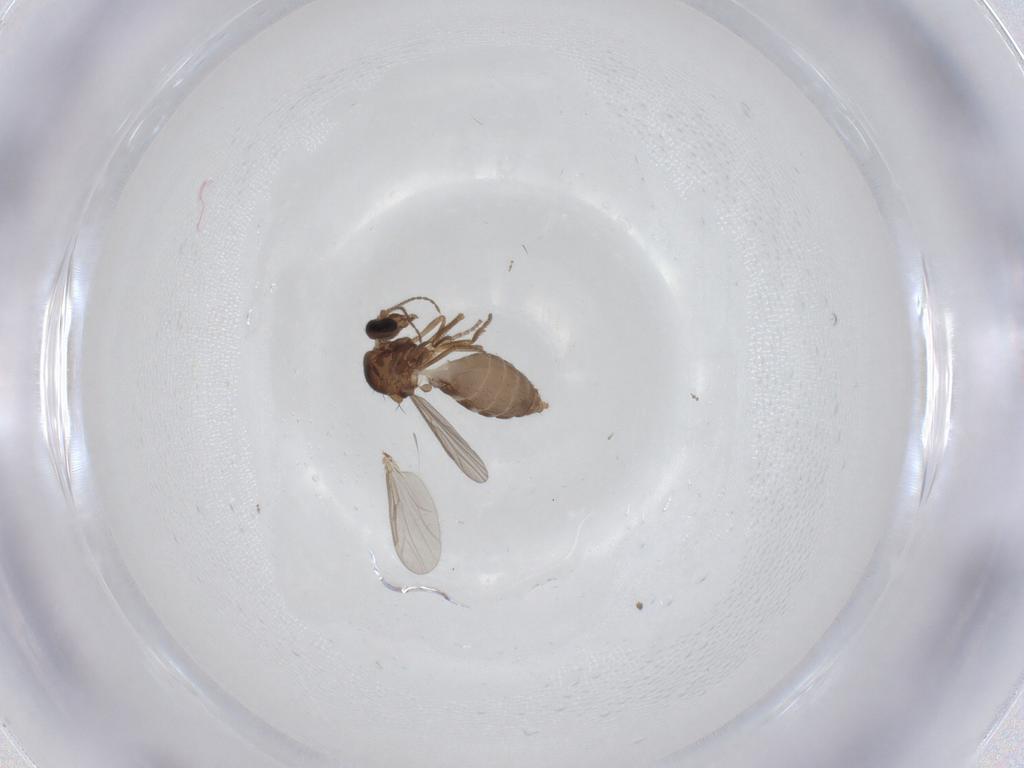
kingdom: Animalia
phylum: Arthropoda
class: Insecta
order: Diptera
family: Ceratopogonidae
